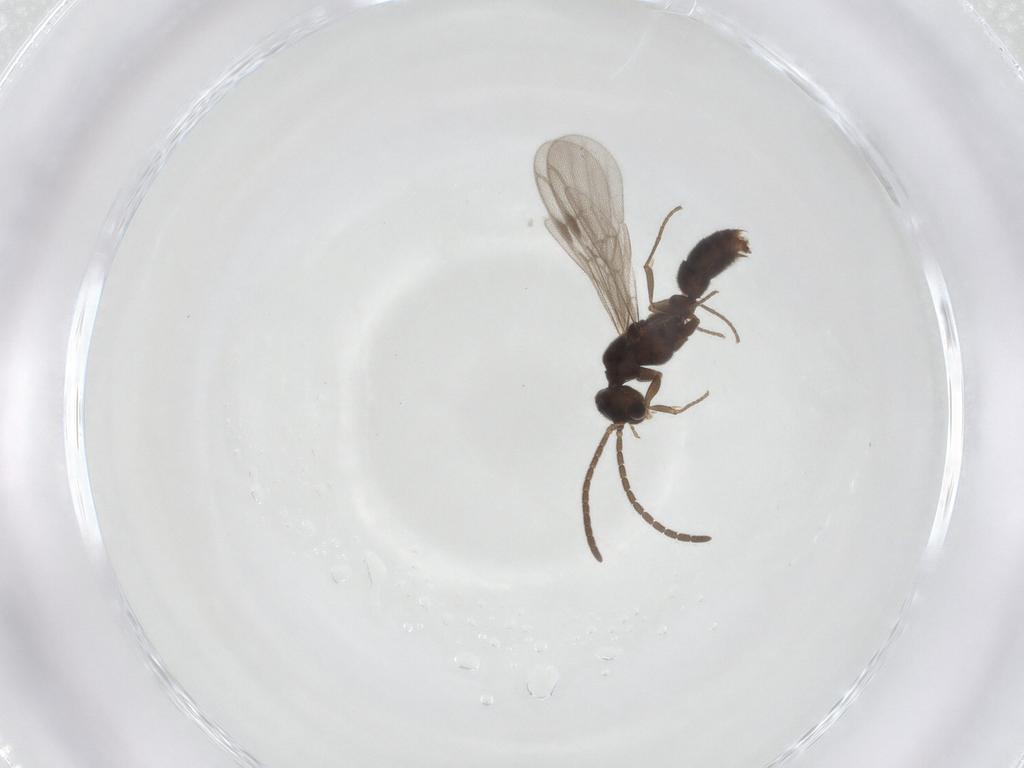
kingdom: Animalia
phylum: Arthropoda
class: Insecta
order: Hymenoptera
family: Formicidae
